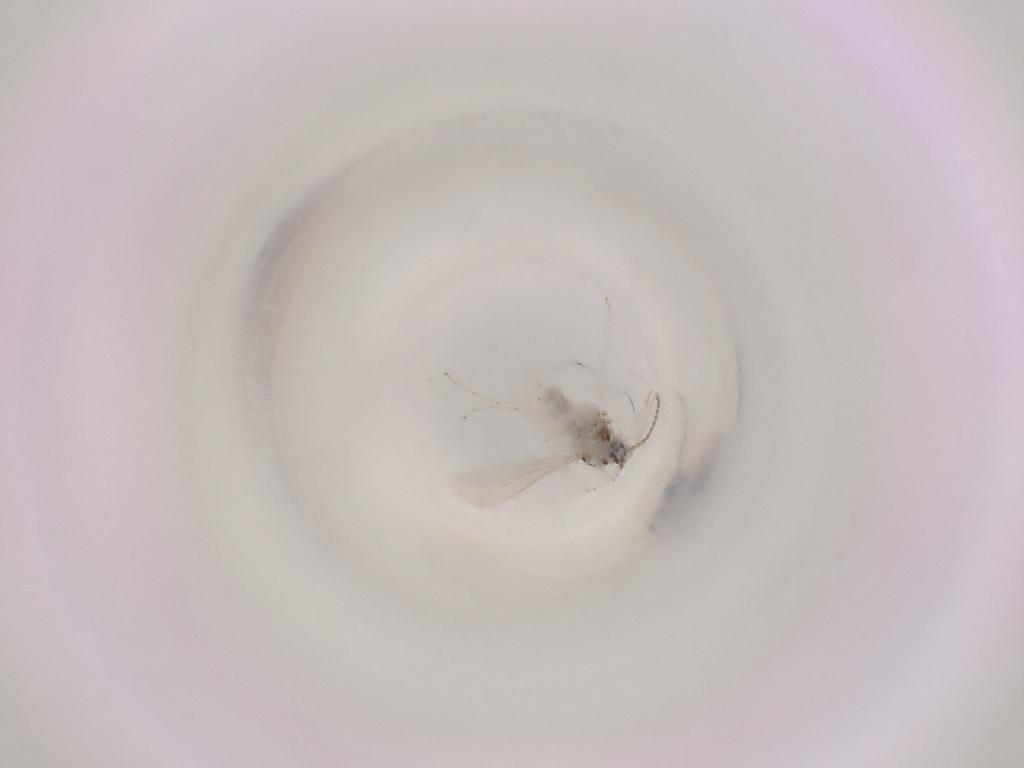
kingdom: Animalia
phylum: Arthropoda
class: Insecta
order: Diptera
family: Cecidomyiidae
